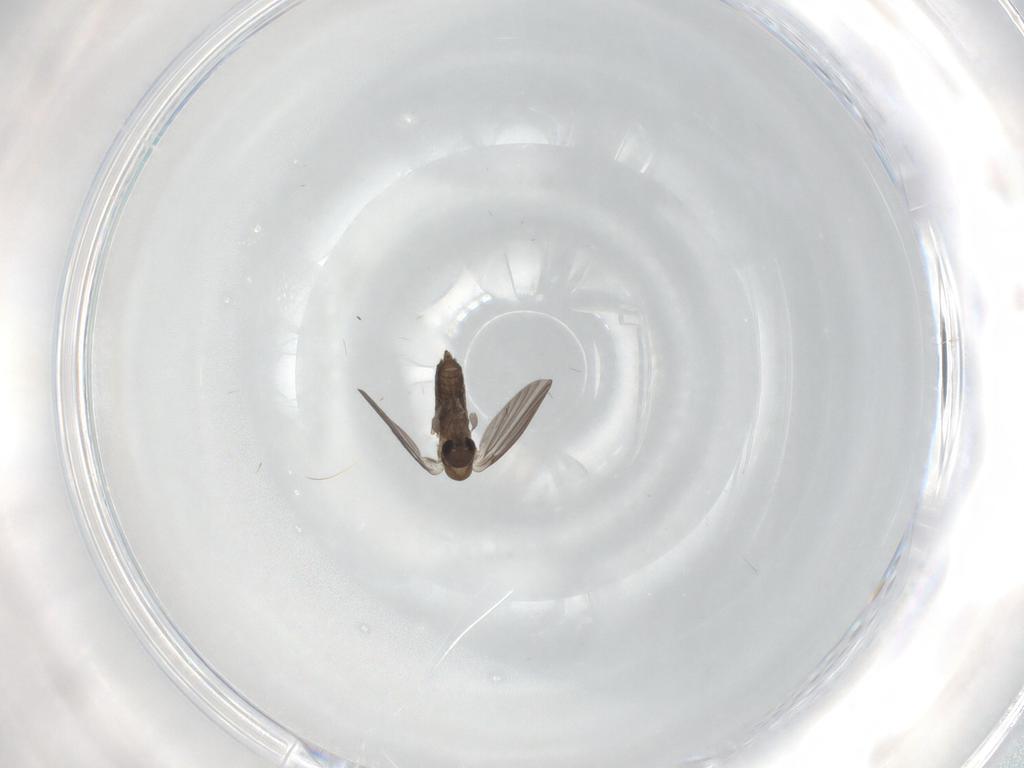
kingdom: Animalia
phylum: Arthropoda
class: Insecta
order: Diptera
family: Psychodidae
